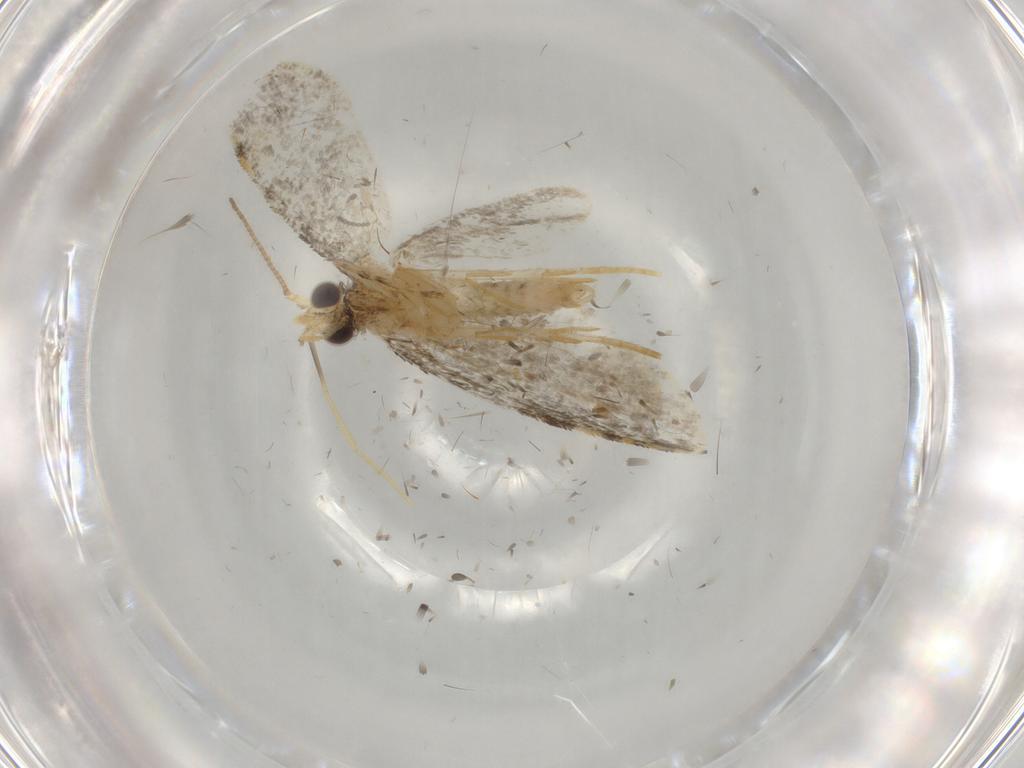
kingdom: Animalia
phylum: Arthropoda
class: Insecta
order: Lepidoptera
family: Psychidae
